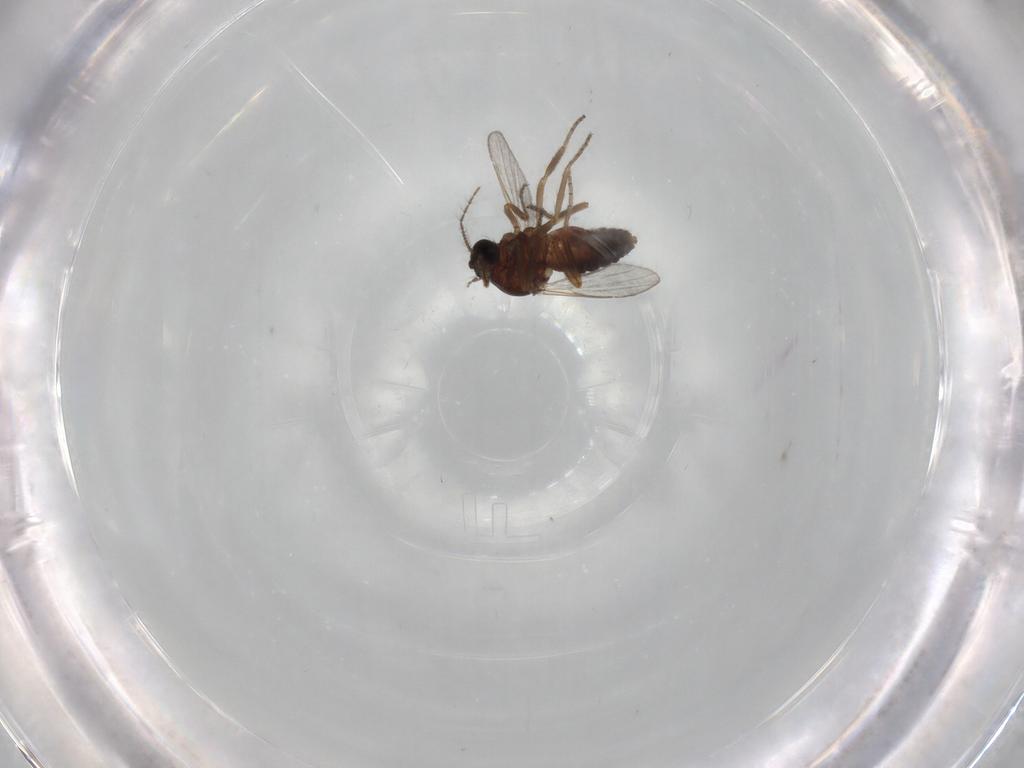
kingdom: Animalia
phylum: Arthropoda
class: Insecta
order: Diptera
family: Ceratopogonidae
